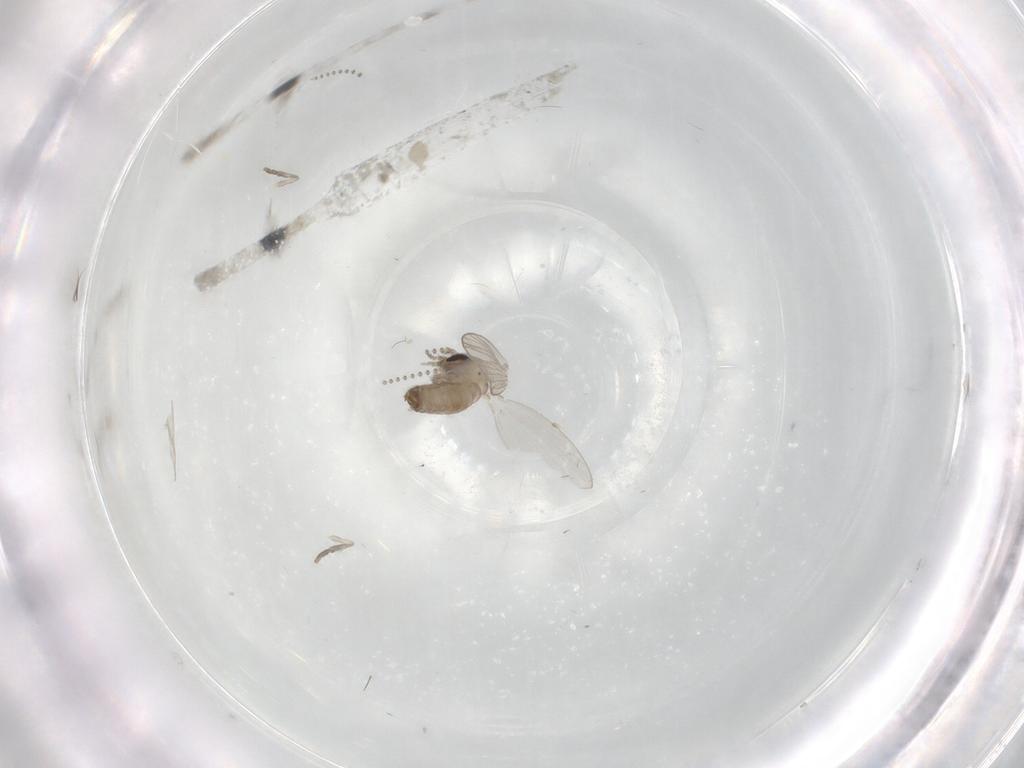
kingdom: Animalia
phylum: Arthropoda
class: Insecta
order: Diptera
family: Psychodidae
